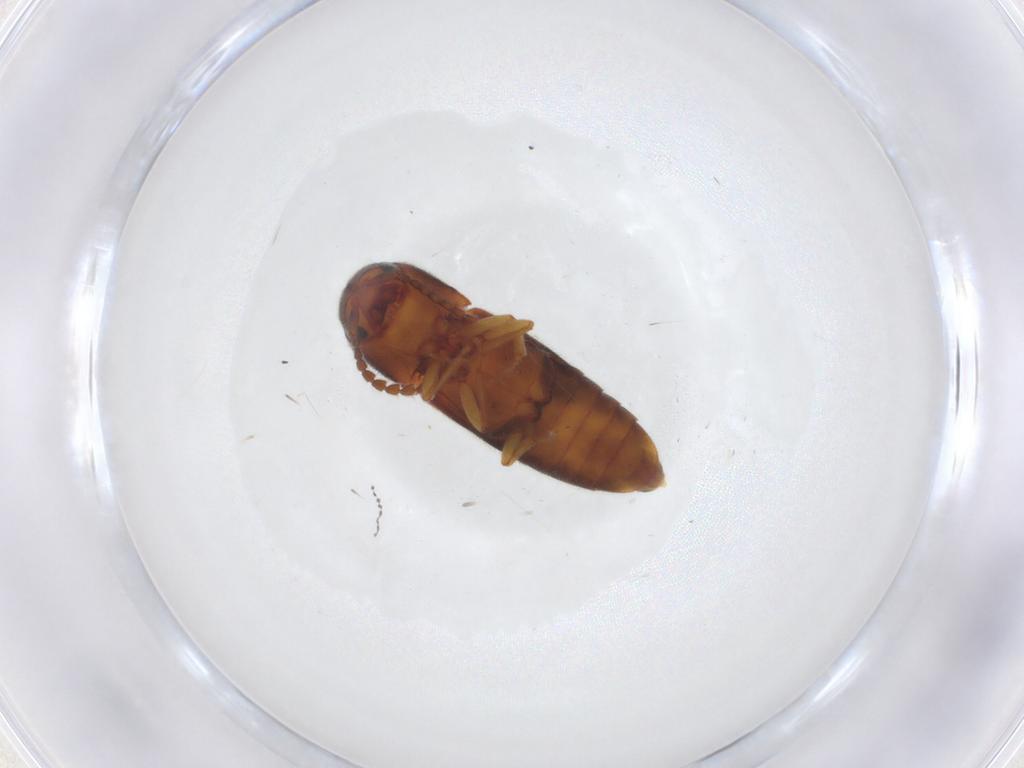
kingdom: Animalia
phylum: Arthropoda
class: Insecta
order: Coleoptera
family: Eucnemidae
